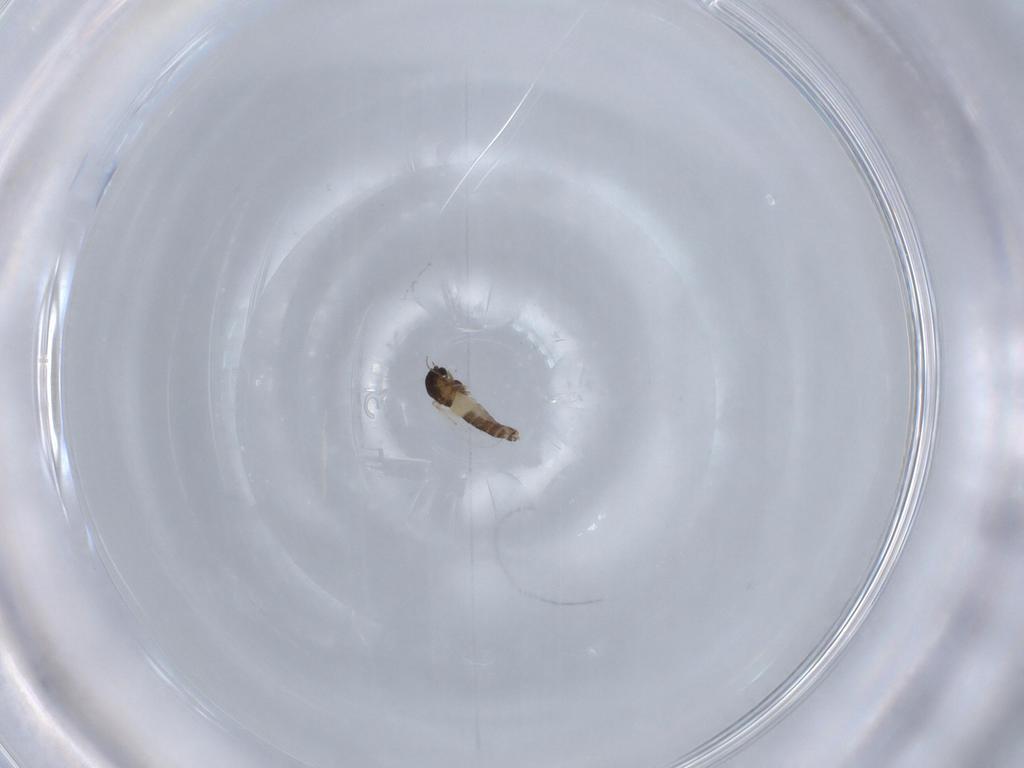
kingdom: Animalia
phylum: Arthropoda
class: Insecta
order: Diptera
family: Chironomidae
